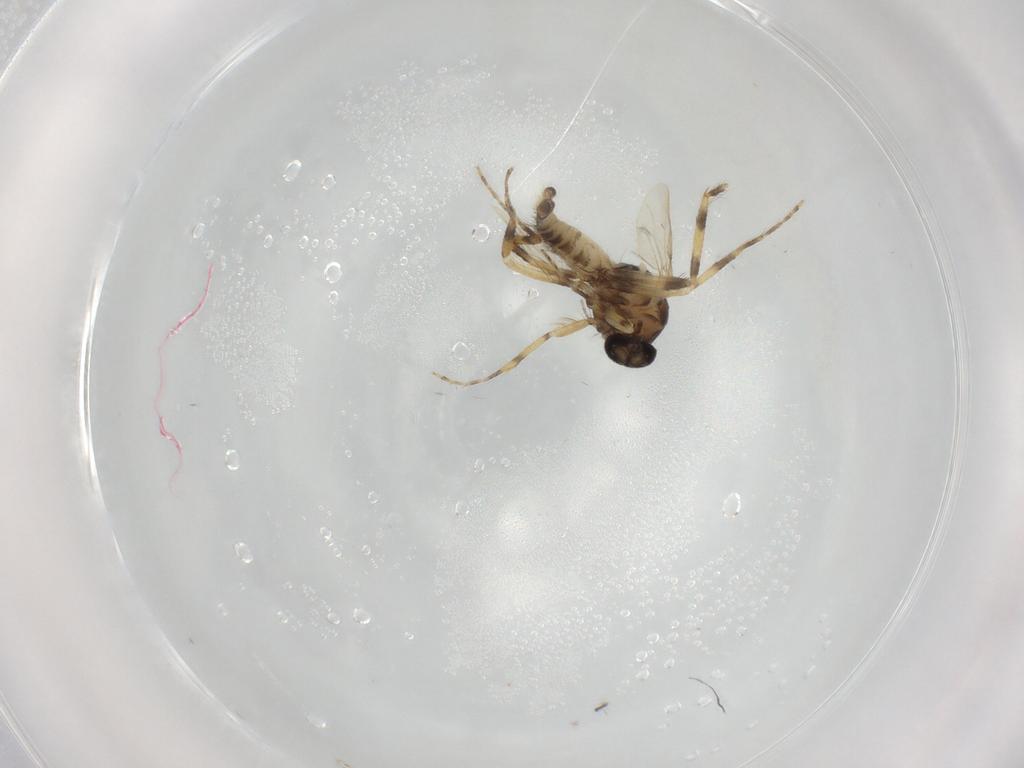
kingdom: Animalia
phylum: Arthropoda
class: Insecta
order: Diptera
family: Ceratopogonidae
